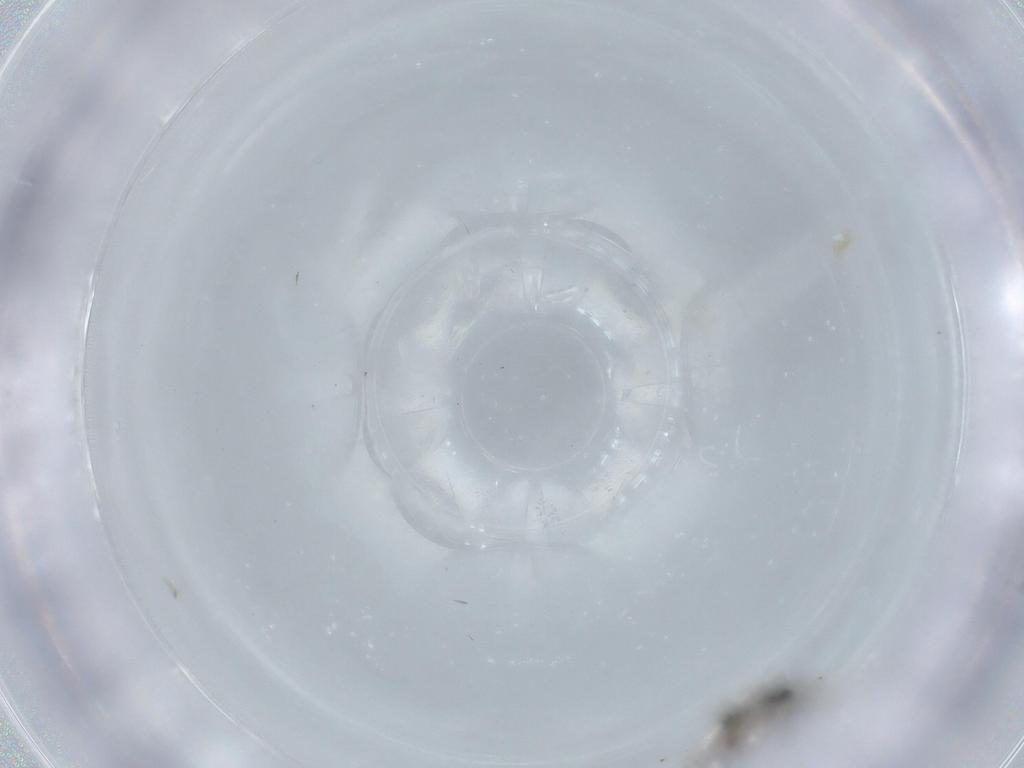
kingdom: Animalia
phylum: Arthropoda
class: Insecta
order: Diptera
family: Cecidomyiidae
